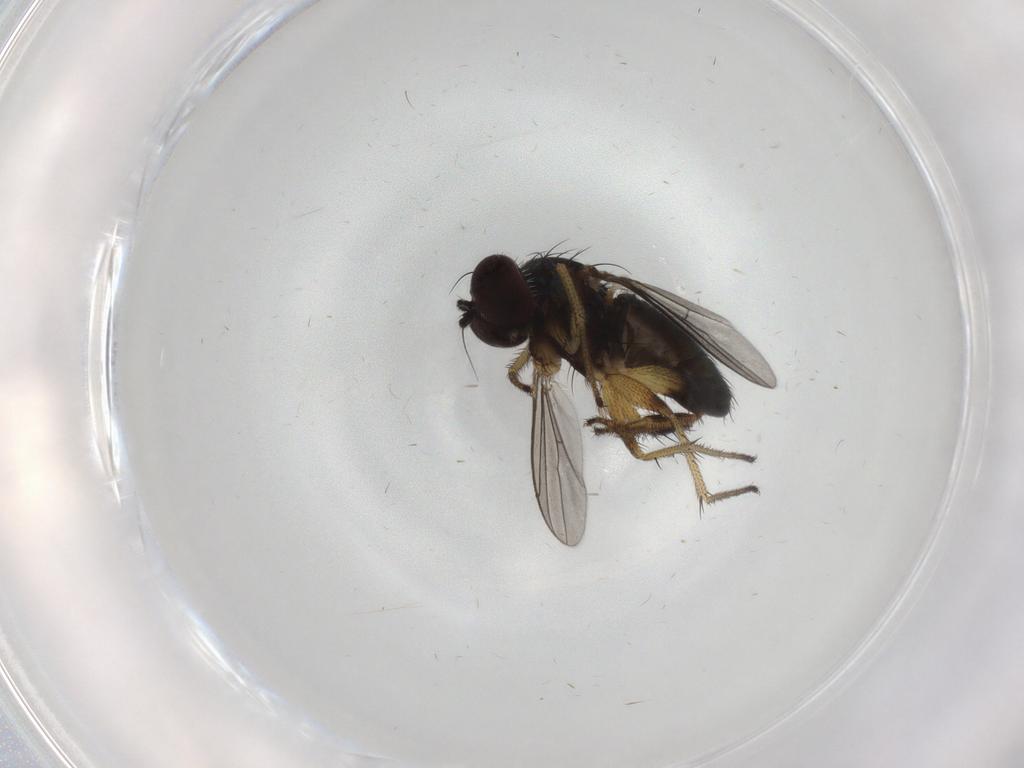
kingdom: Animalia
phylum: Arthropoda
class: Insecta
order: Diptera
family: Dolichopodidae
